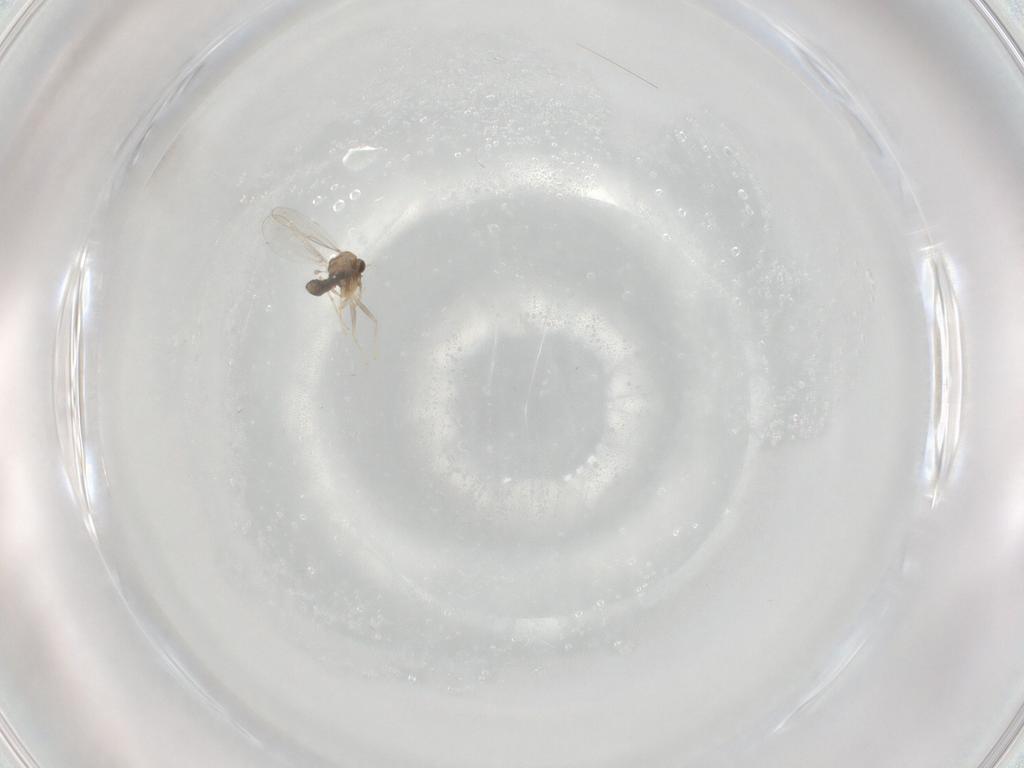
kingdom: Animalia
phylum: Arthropoda
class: Insecta
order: Diptera
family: Chironomidae
